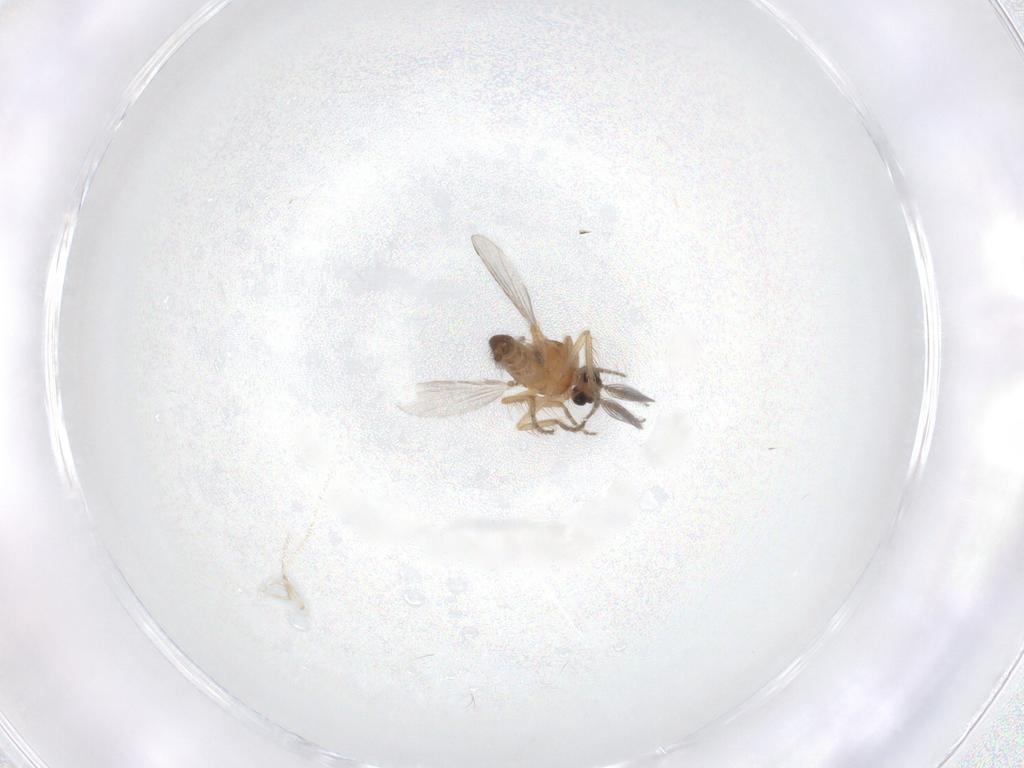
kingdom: Animalia
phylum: Arthropoda
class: Insecta
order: Diptera
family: Ceratopogonidae
